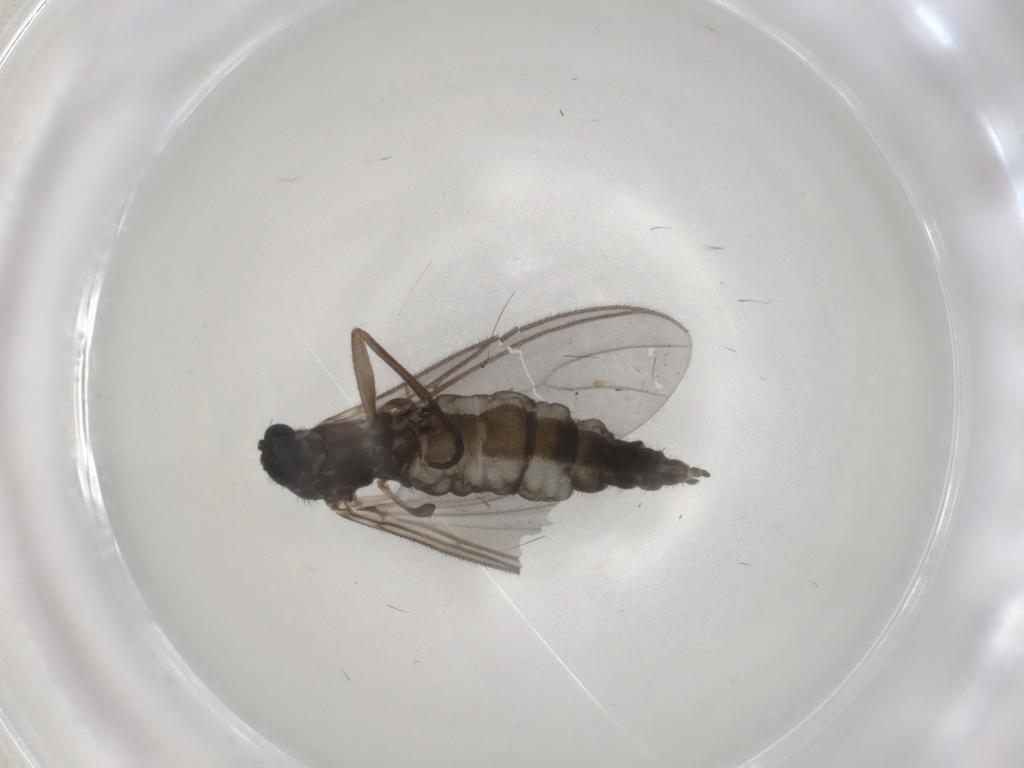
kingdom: Animalia
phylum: Arthropoda
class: Insecta
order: Diptera
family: Sciaridae
